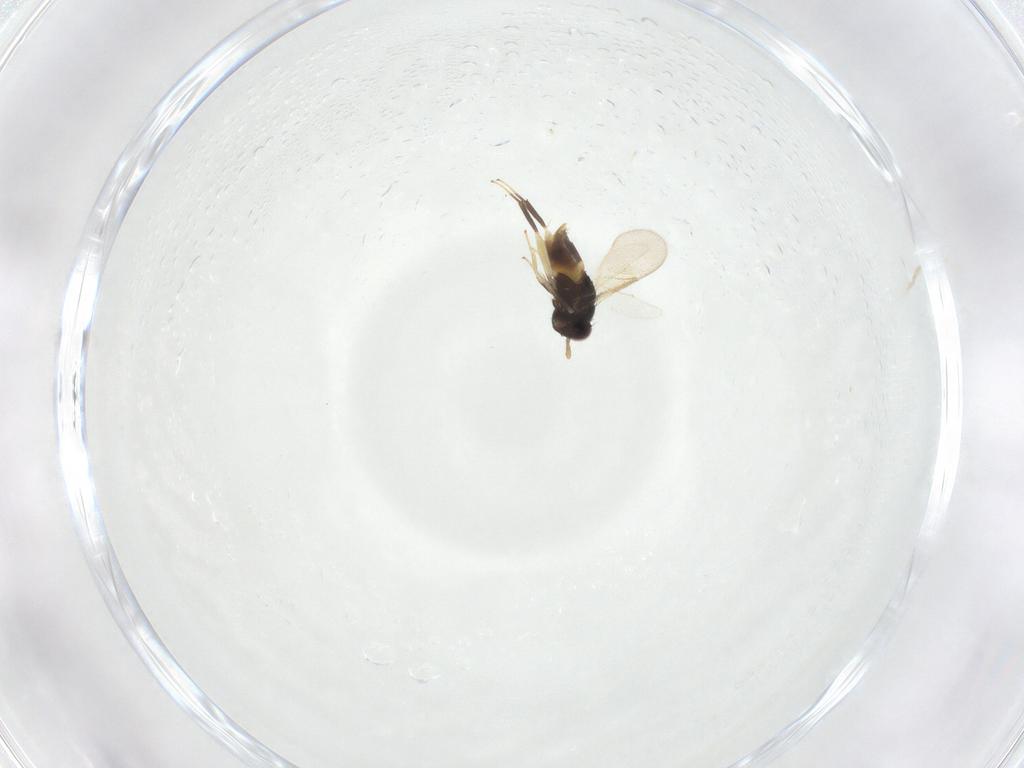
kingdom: Animalia
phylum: Arthropoda
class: Insecta
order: Hymenoptera
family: Aphelinidae
